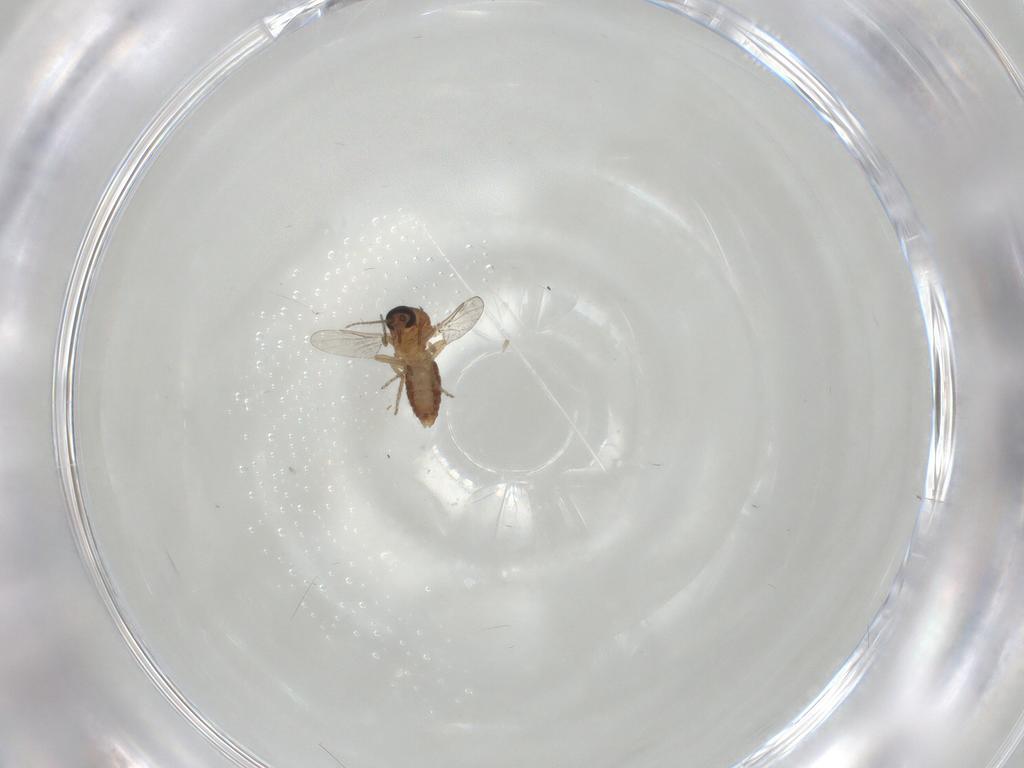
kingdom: Animalia
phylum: Arthropoda
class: Insecta
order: Diptera
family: Ceratopogonidae
